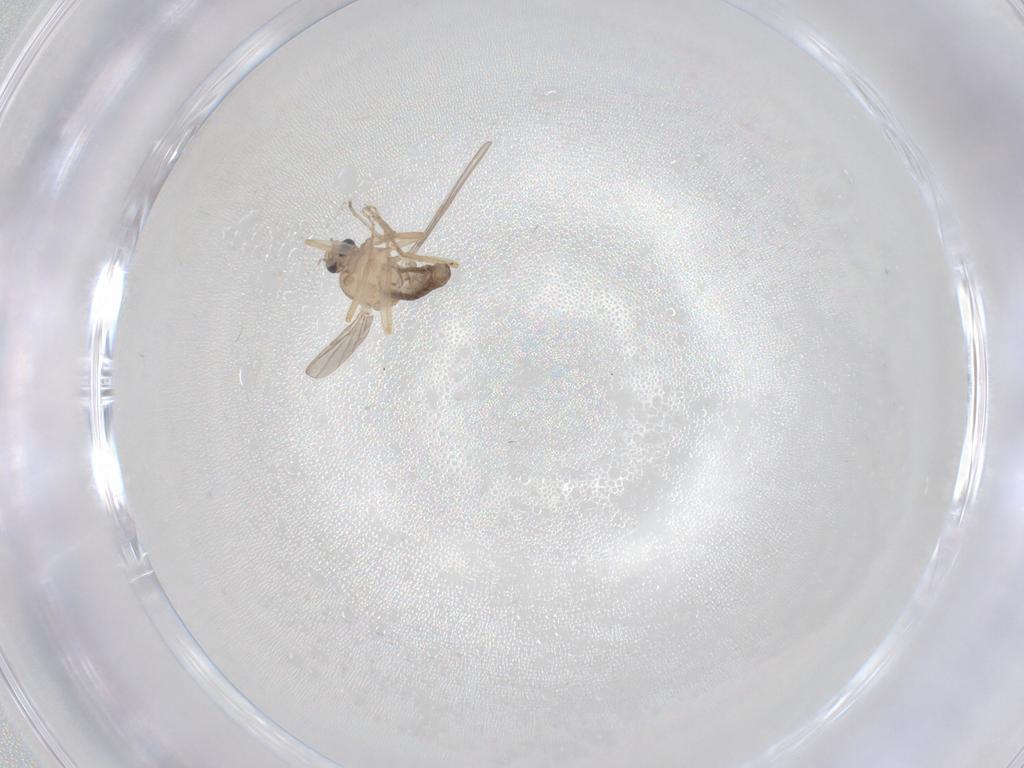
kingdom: Animalia
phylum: Arthropoda
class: Insecta
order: Diptera
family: Ceratopogonidae
